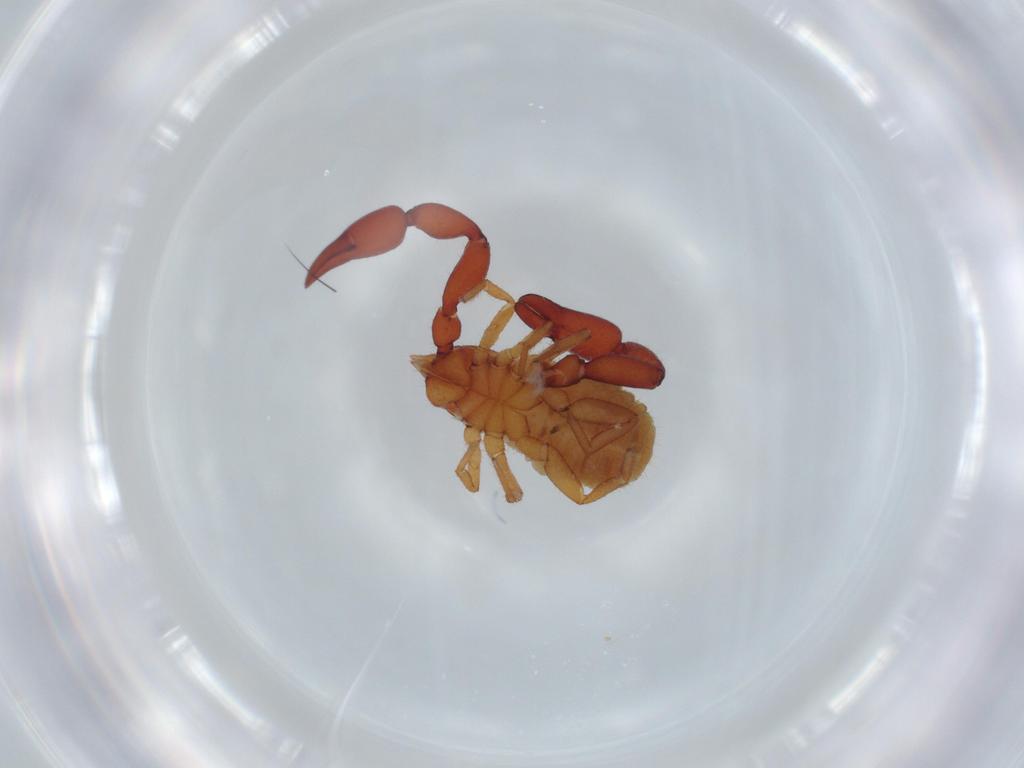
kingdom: Animalia
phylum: Arthropoda
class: Arachnida
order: Pseudoscorpiones
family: Chernetidae
